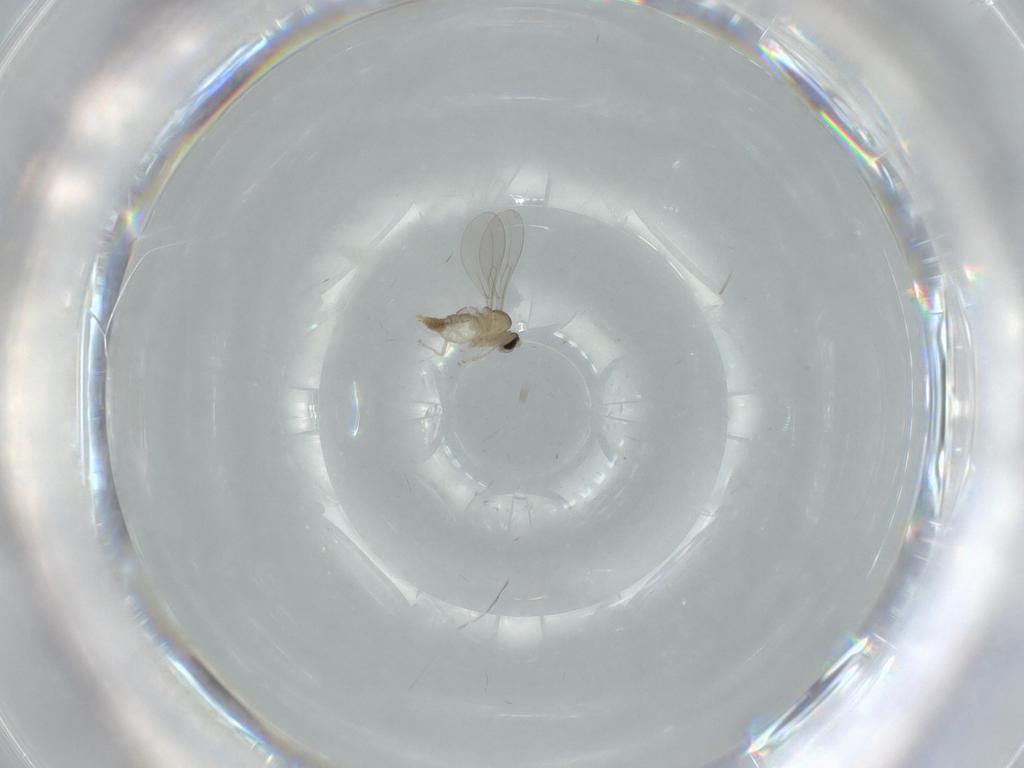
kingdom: Animalia
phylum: Arthropoda
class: Insecta
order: Diptera
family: Cecidomyiidae
